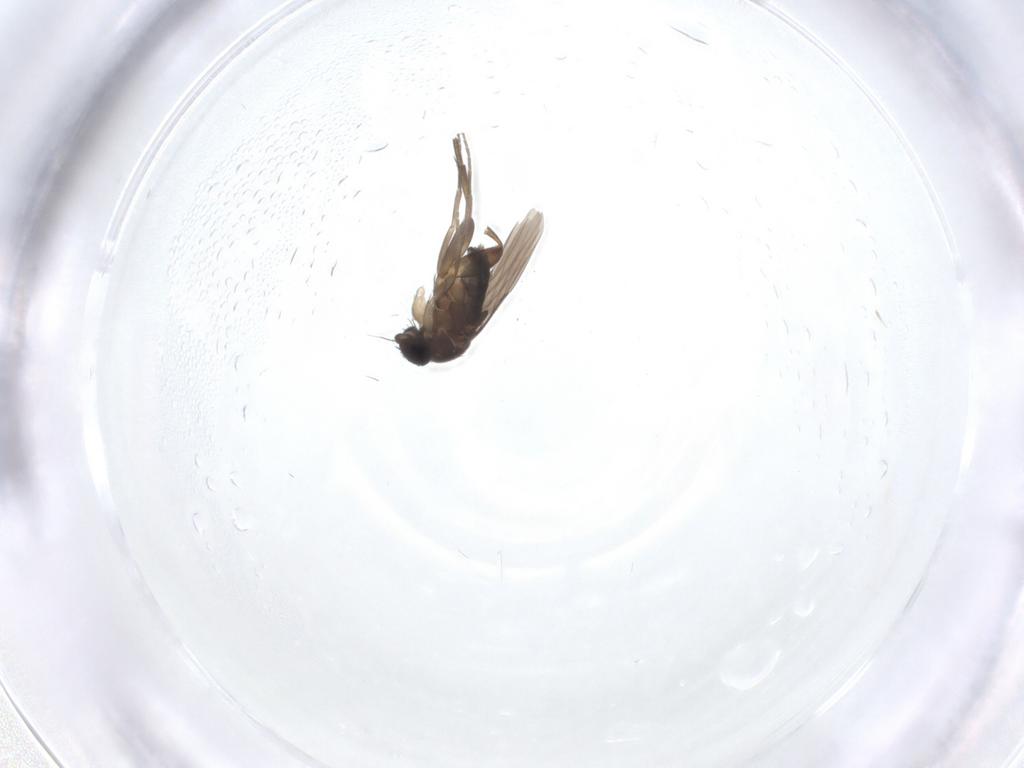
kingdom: Animalia
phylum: Arthropoda
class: Insecta
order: Diptera
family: Phoridae
